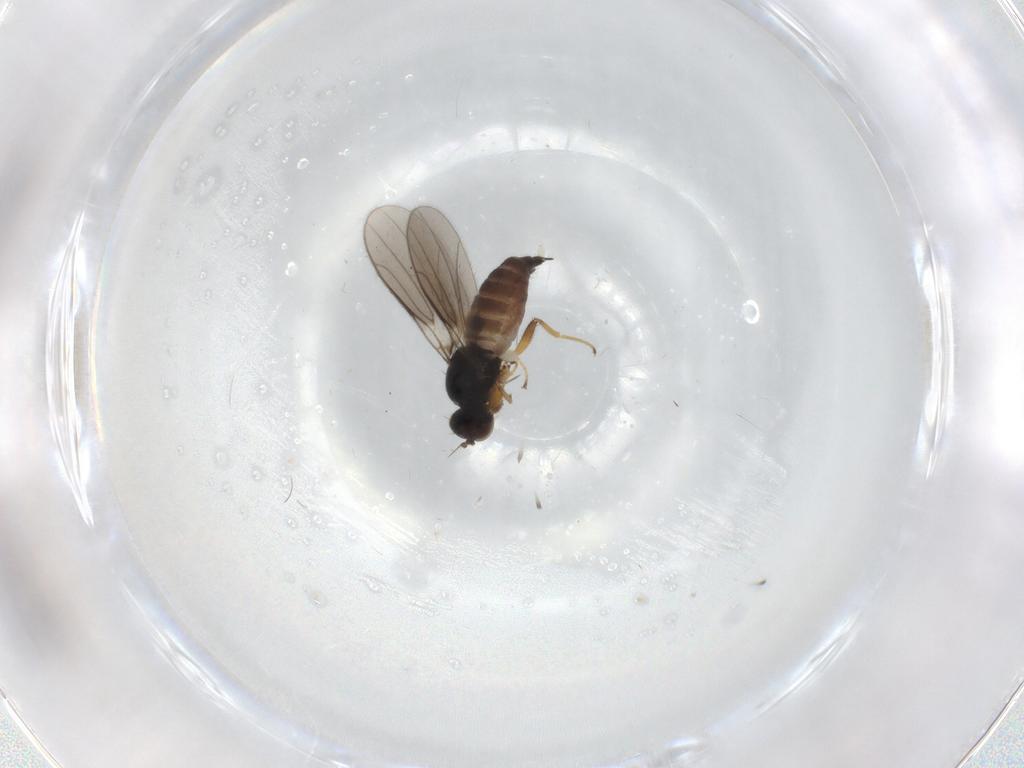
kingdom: Animalia
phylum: Arthropoda
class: Insecta
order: Diptera
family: Hybotidae
